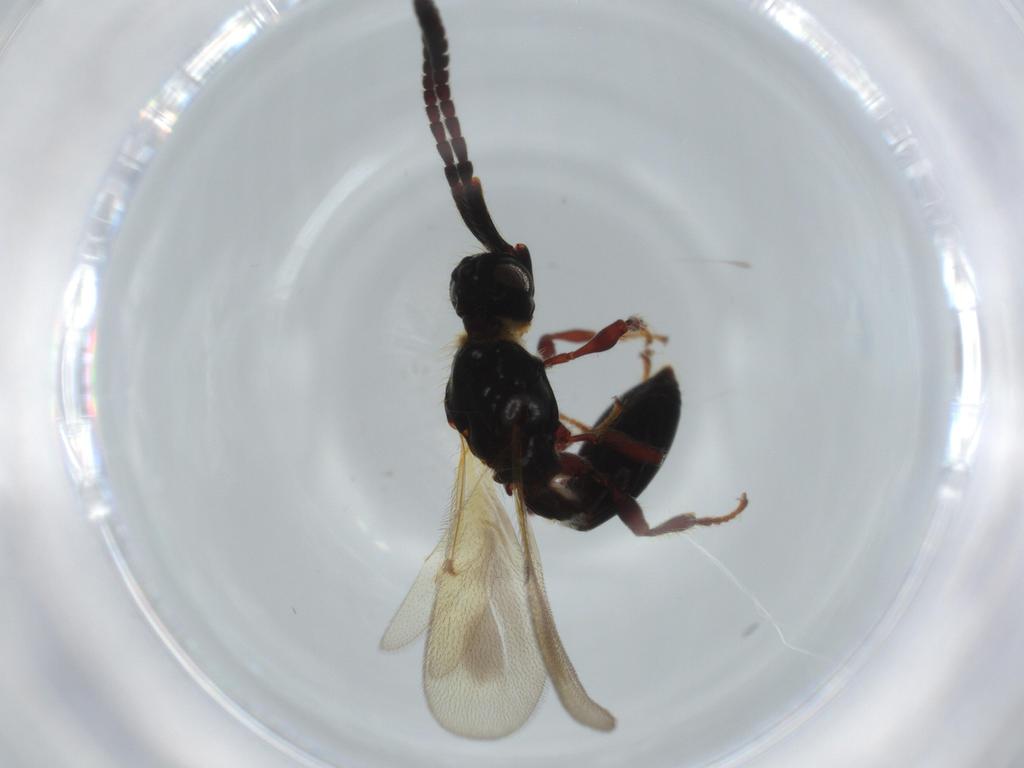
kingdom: Animalia
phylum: Arthropoda
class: Insecta
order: Hymenoptera
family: Diapriidae
